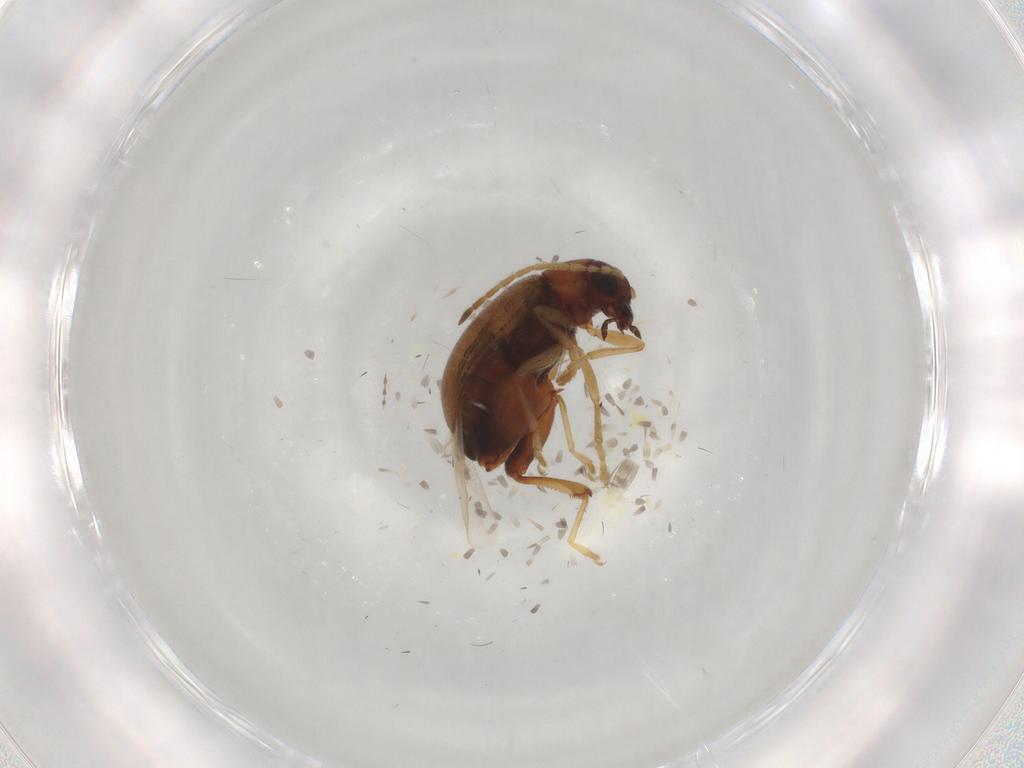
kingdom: Animalia
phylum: Arthropoda
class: Insecta
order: Coleoptera
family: Chrysomelidae
